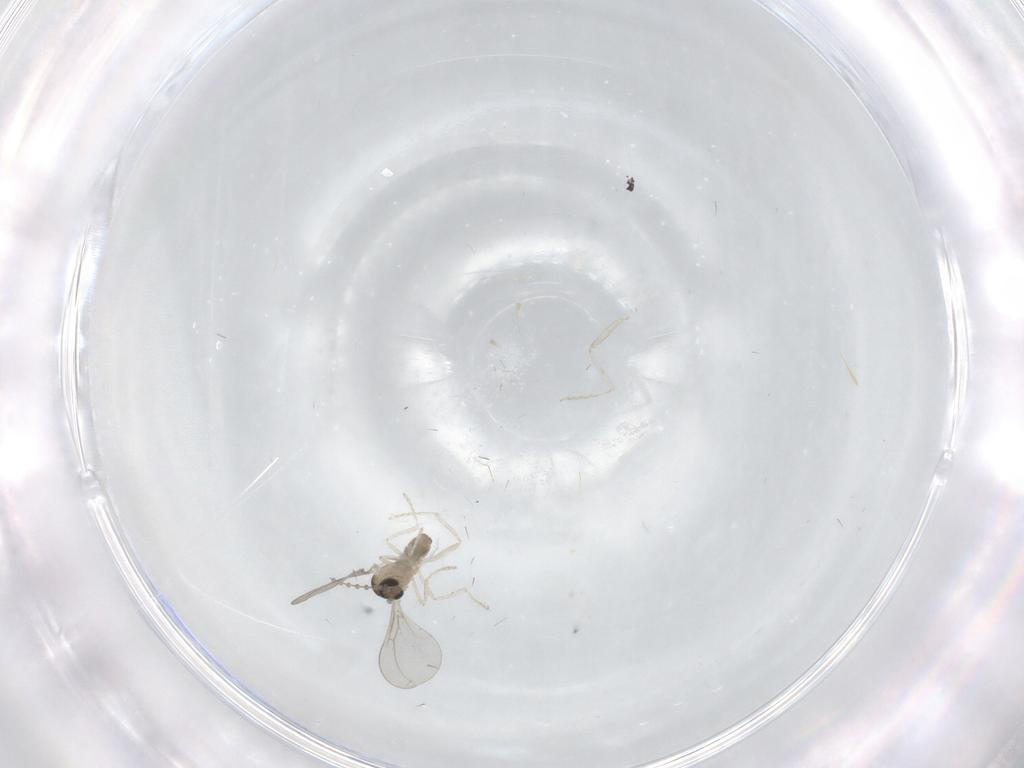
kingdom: Animalia
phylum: Arthropoda
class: Insecta
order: Diptera
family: Cecidomyiidae
